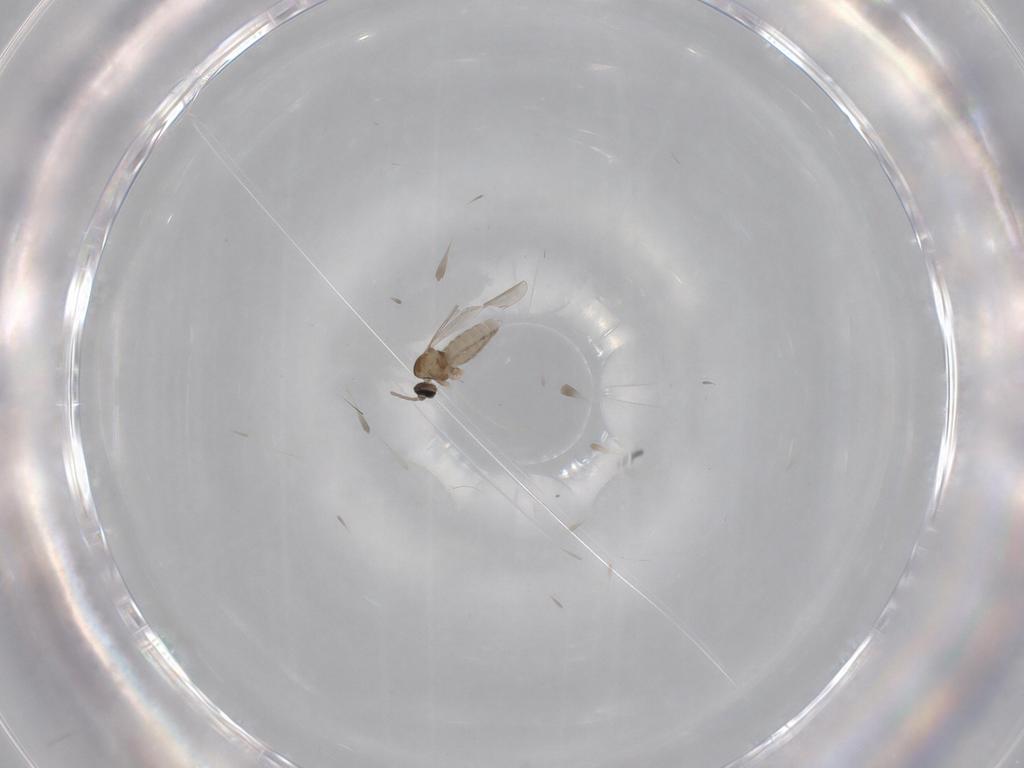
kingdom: Animalia
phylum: Arthropoda
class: Insecta
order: Diptera
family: Cecidomyiidae
